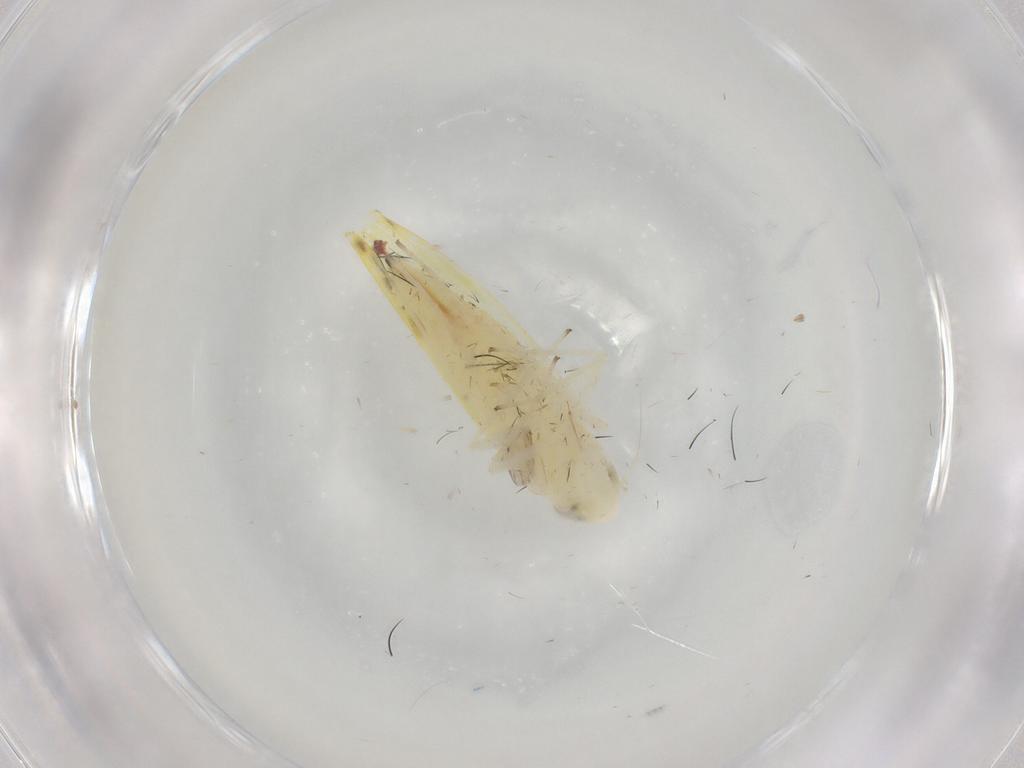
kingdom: Animalia
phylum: Arthropoda
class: Insecta
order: Hemiptera
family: Cicadellidae
